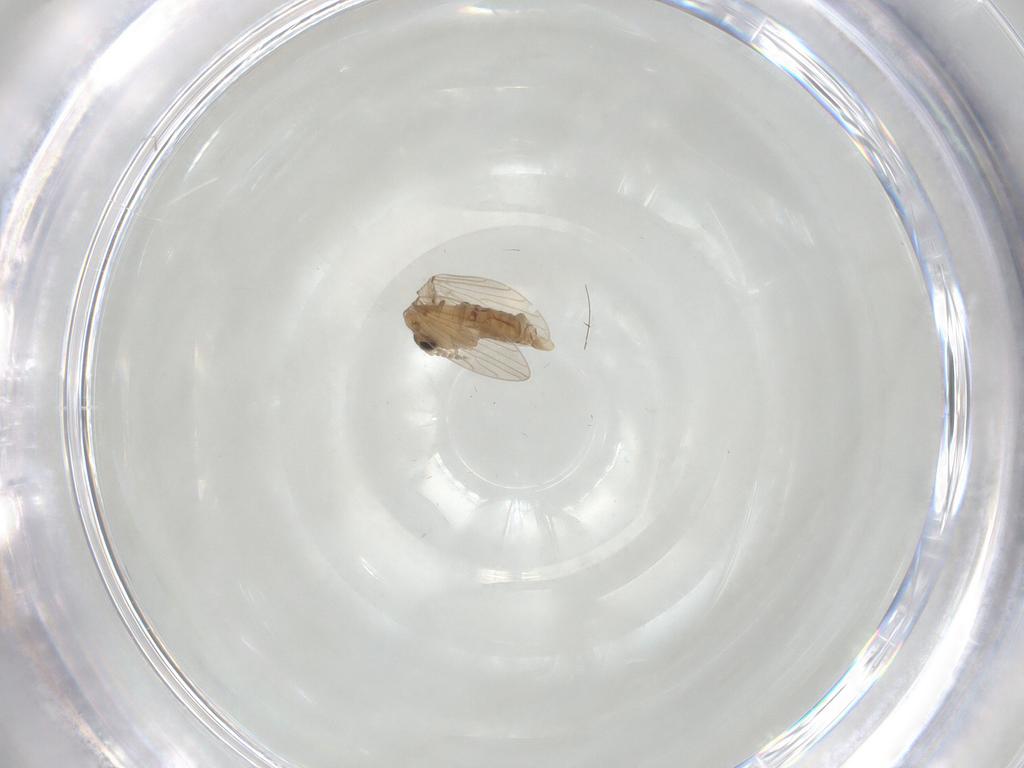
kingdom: Animalia
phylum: Arthropoda
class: Insecta
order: Diptera
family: Psychodidae
